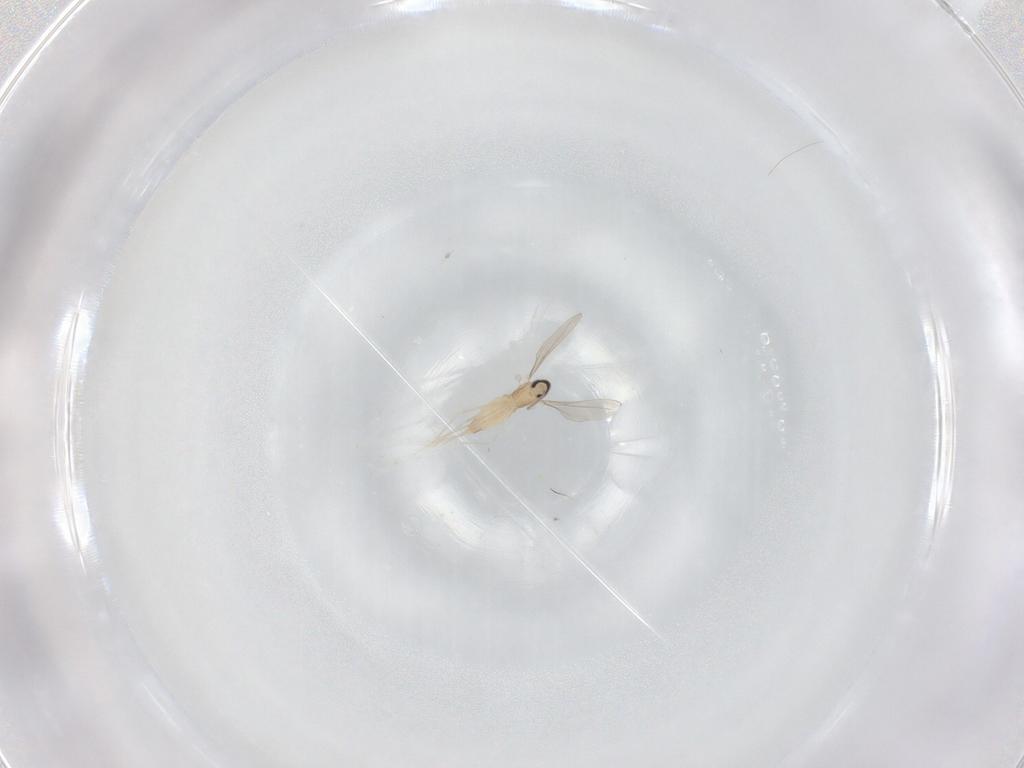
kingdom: Animalia
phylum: Arthropoda
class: Insecta
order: Diptera
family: Cecidomyiidae
